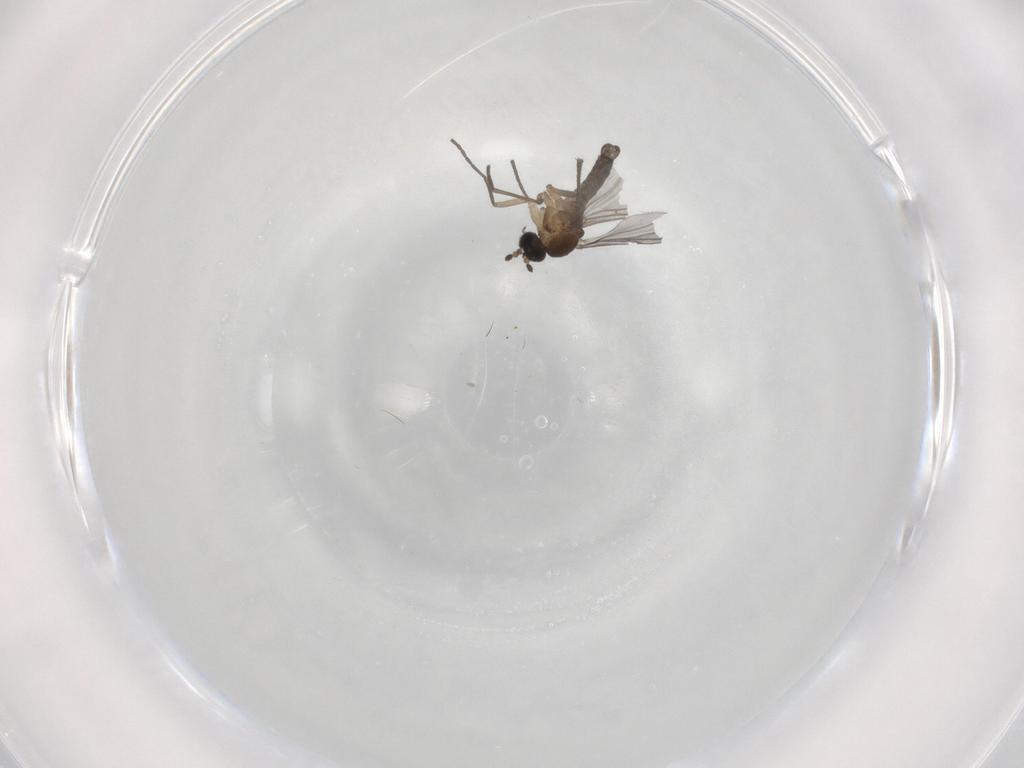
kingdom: Animalia
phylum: Arthropoda
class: Insecta
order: Diptera
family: Sciaridae
